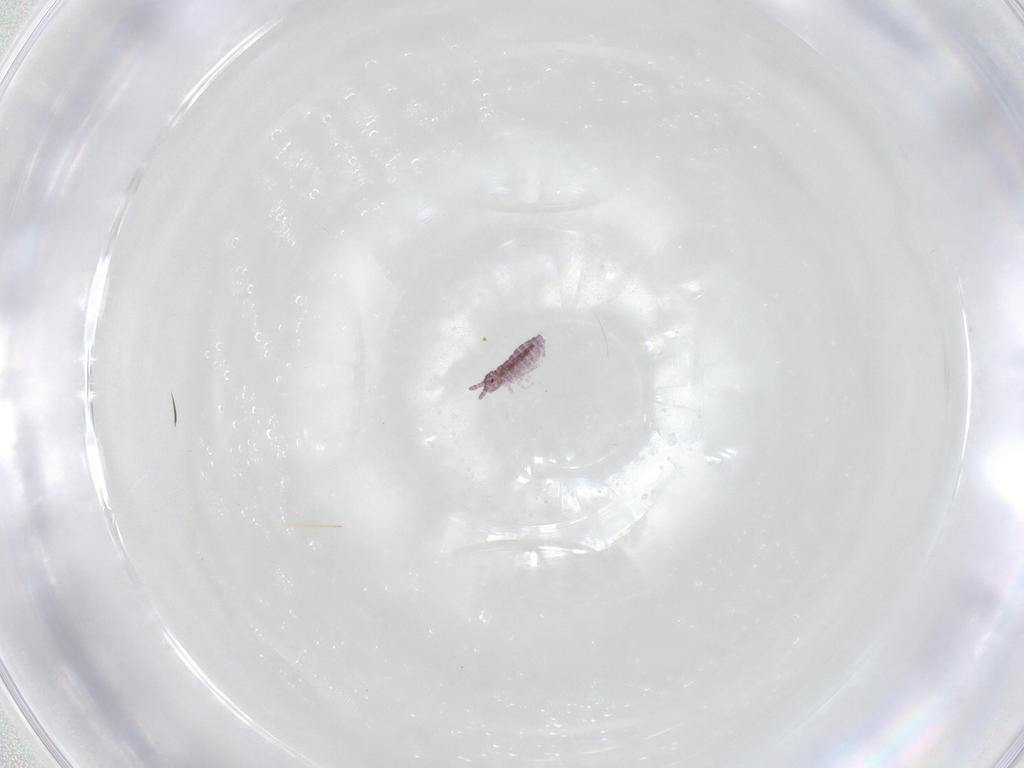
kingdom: Animalia
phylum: Arthropoda
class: Collembola
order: Poduromorpha
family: Hypogastruridae
